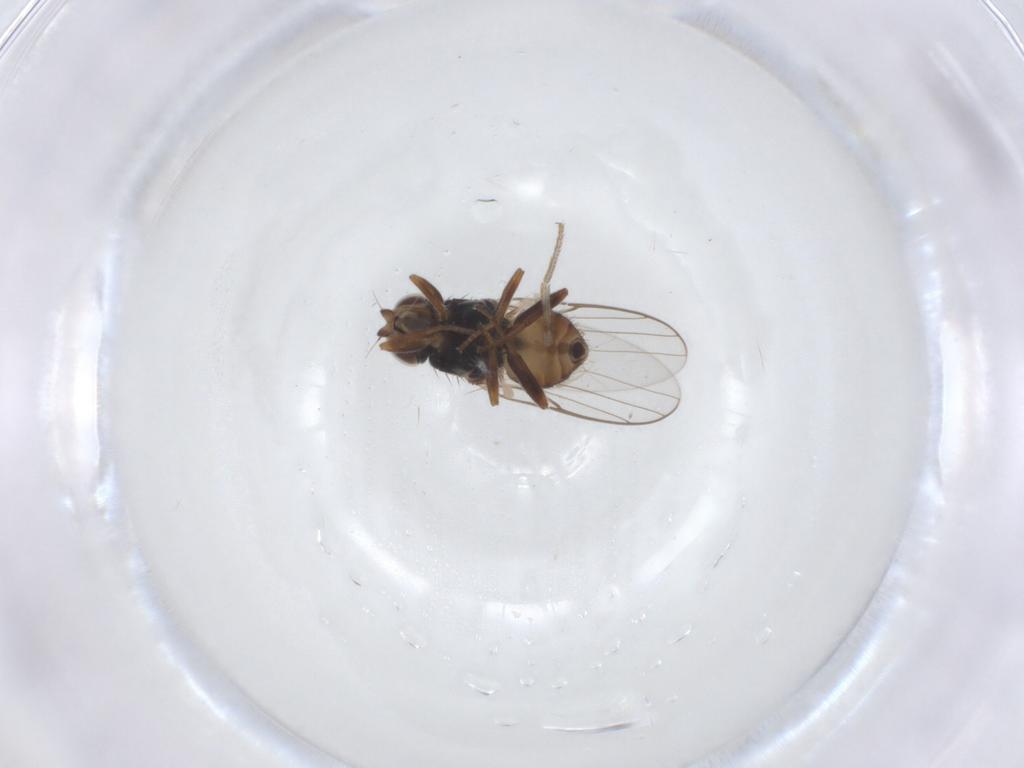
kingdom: Animalia
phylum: Arthropoda
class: Insecta
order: Diptera
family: Chloropidae
